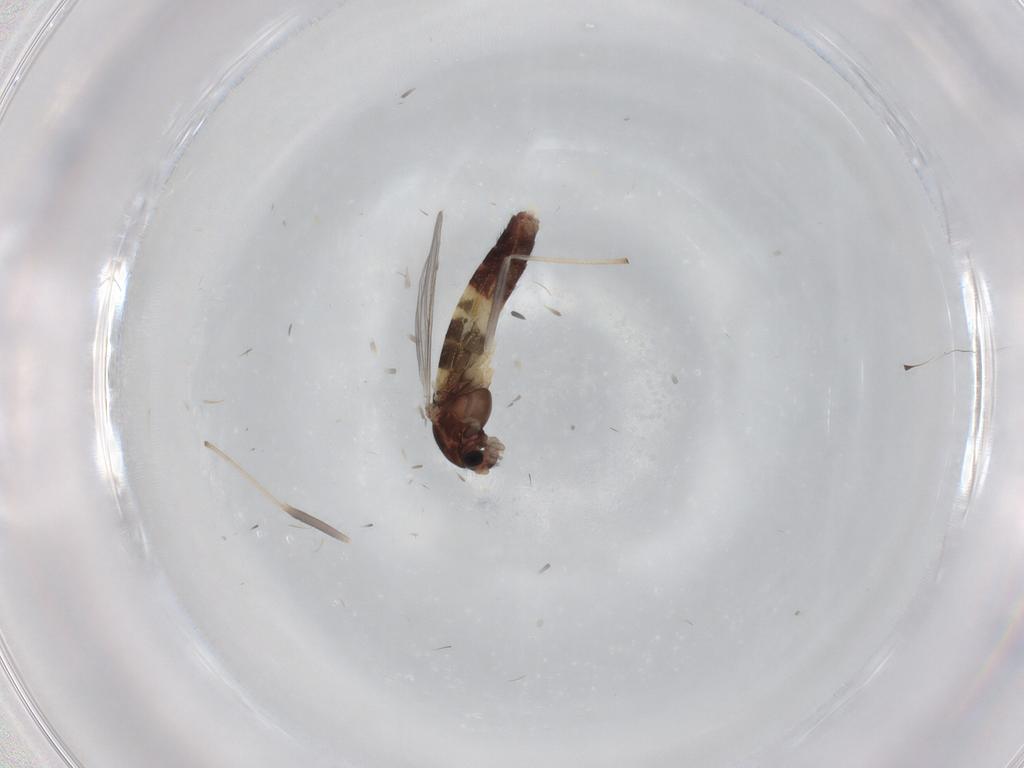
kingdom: Animalia
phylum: Arthropoda
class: Insecta
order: Diptera
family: Chironomidae
